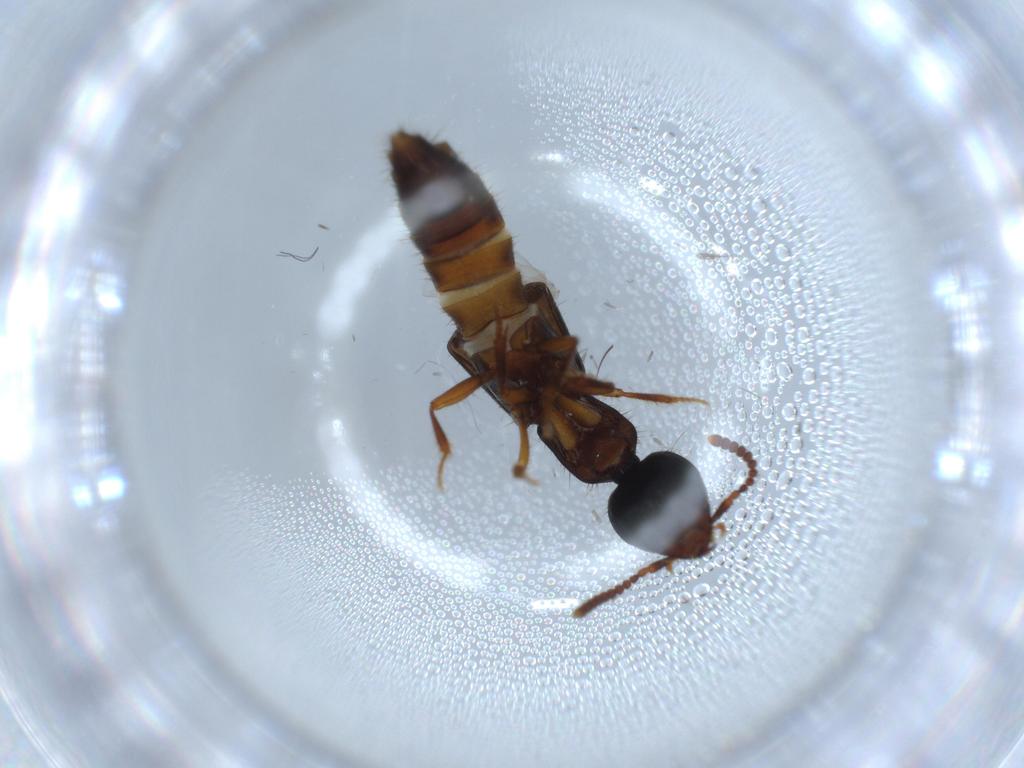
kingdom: Animalia
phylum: Arthropoda
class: Insecta
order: Coleoptera
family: Staphylinidae
